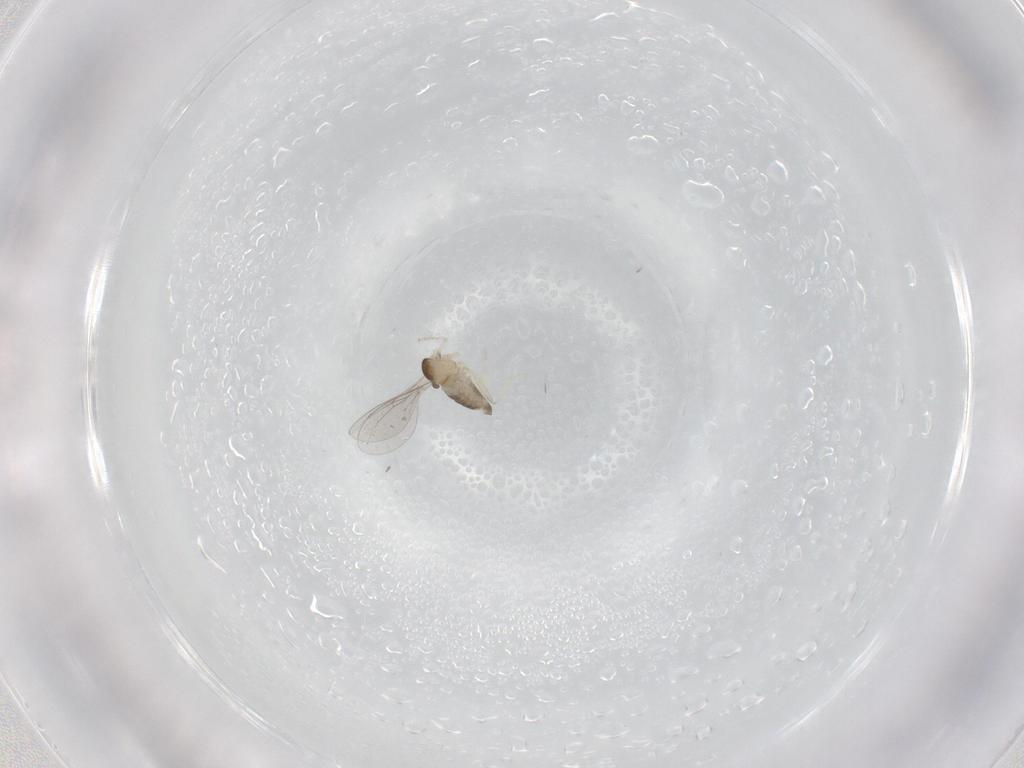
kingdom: Animalia
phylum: Arthropoda
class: Insecta
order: Diptera
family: Cecidomyiidae
